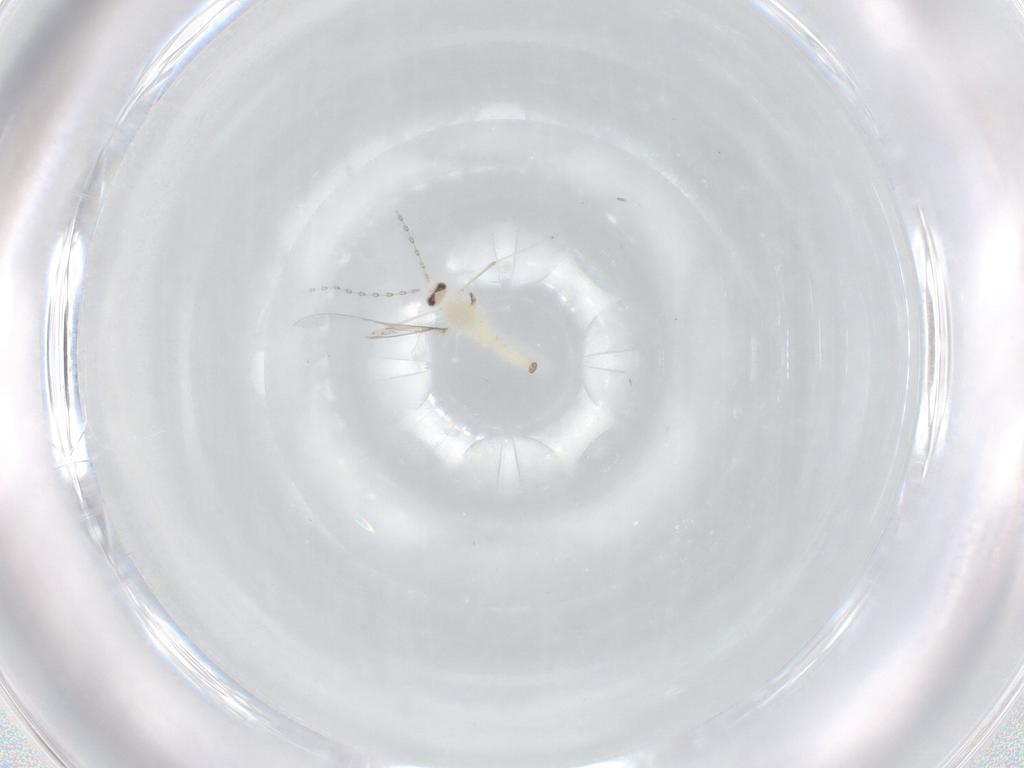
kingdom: Animalia
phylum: Arthropoda
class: Insecta
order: Diptera
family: Cecidomyiidae
